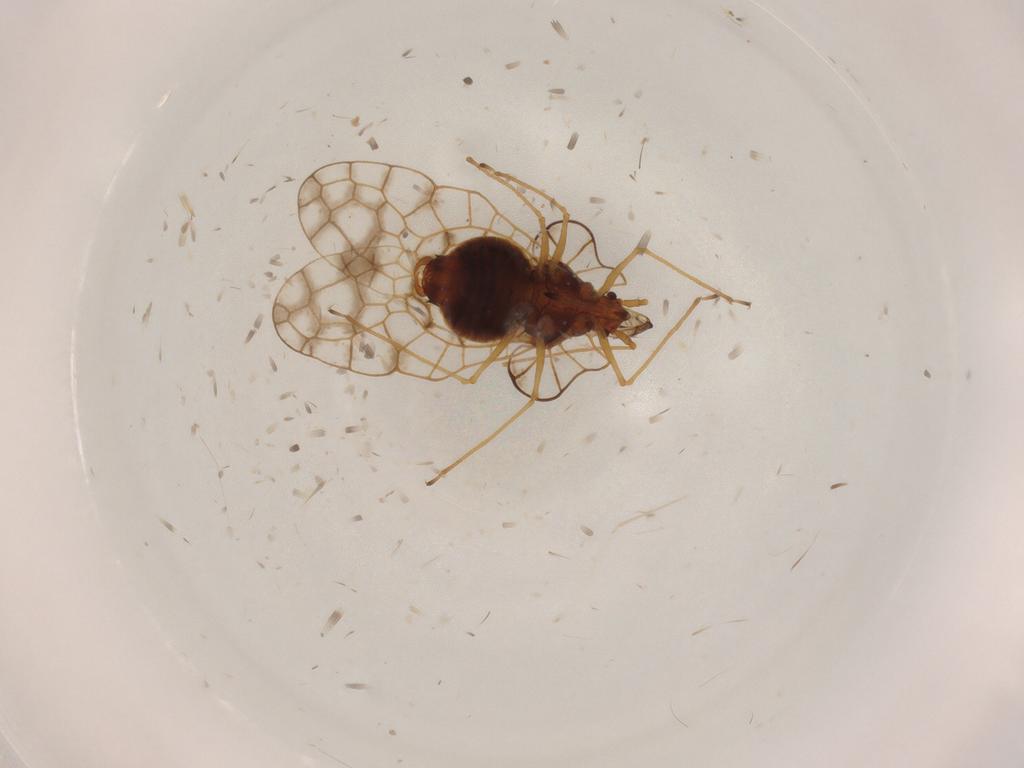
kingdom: Animalia
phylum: Arthropoda
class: Insecta
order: Hemiptera
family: Tingidae
